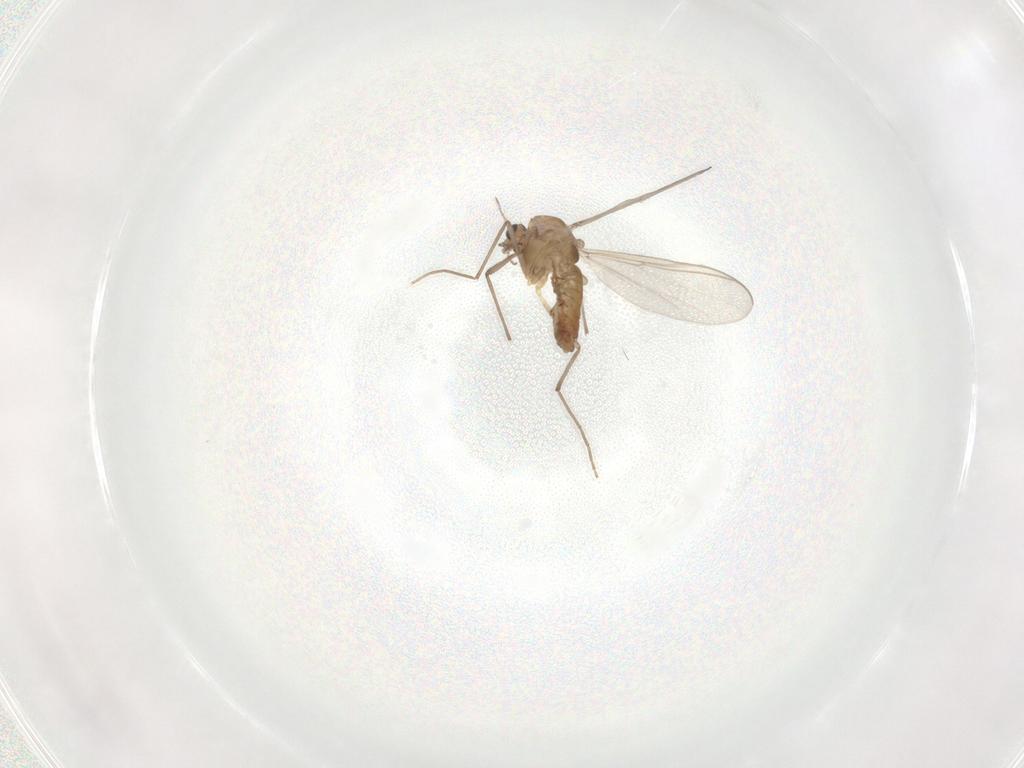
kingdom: Animalia
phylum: Arthropoda
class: Insecta
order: Diptera
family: Chironomidae
